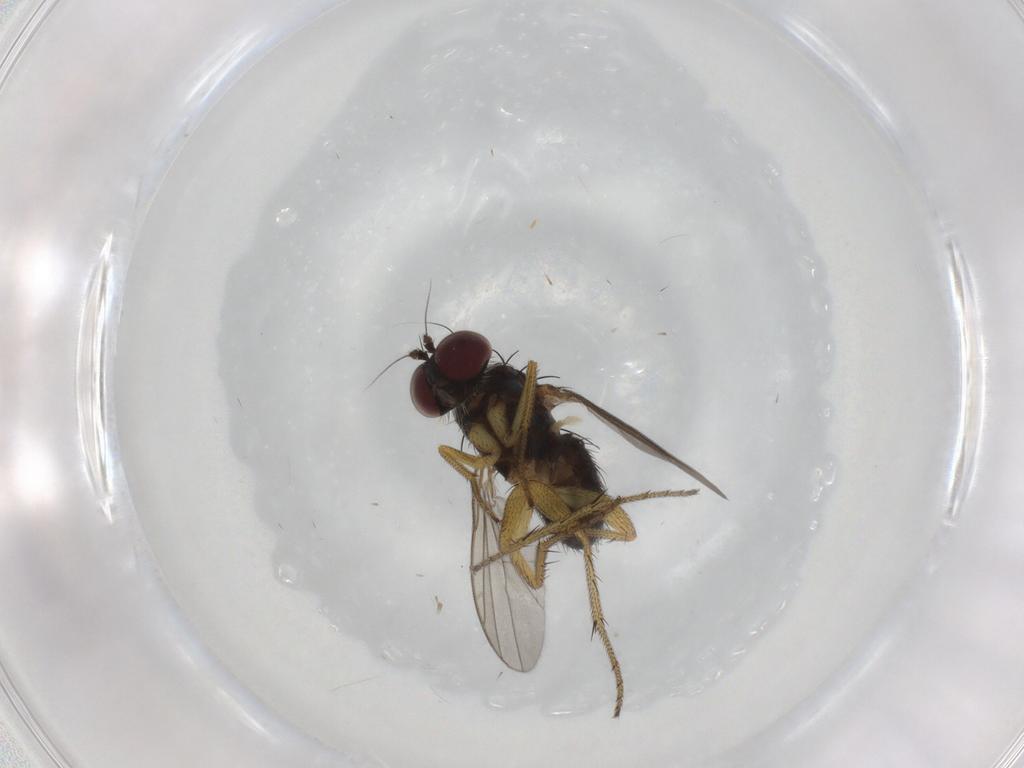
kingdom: Animalia
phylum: Arthropoda
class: Insecta
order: Diptera
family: Dolichopodidae
